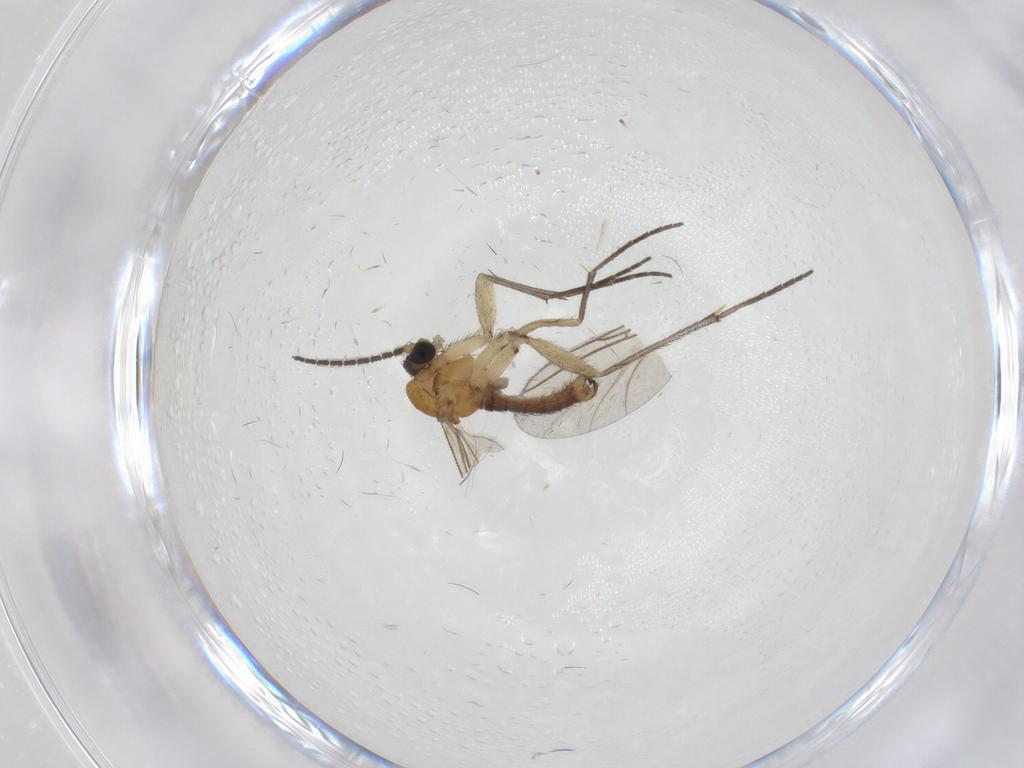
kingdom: Animalia
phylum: Arthropoda
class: Insecta
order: Diptera
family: Sciaridae
